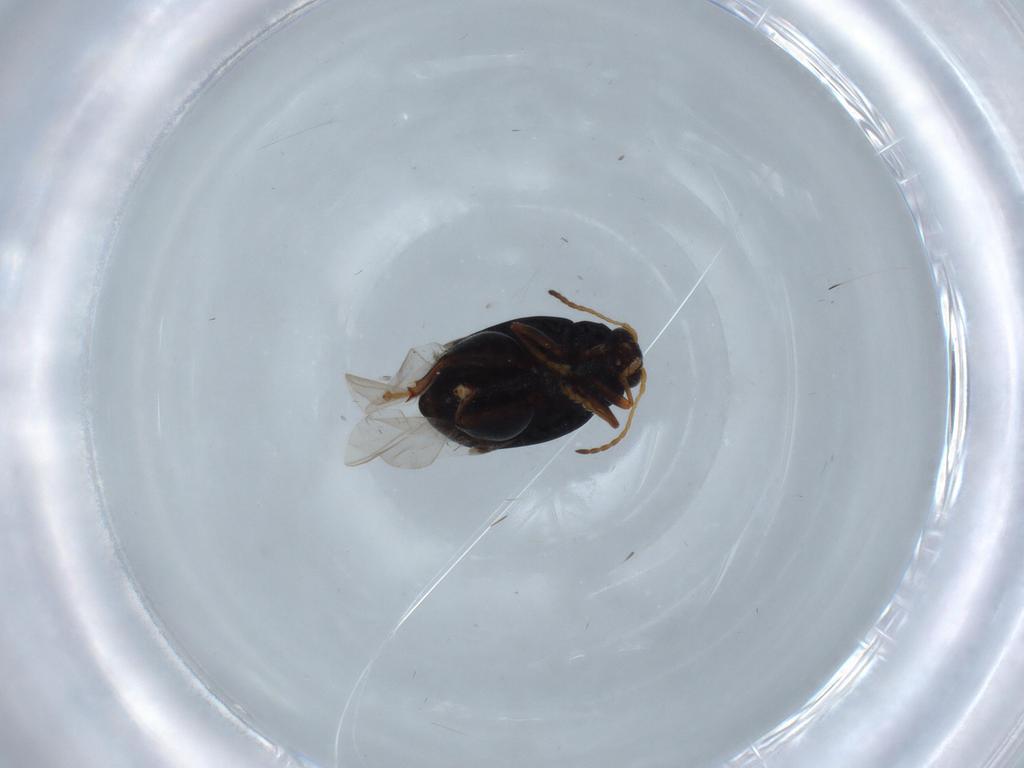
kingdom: Animalia
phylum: Arthropoda
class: Insecta
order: Coleoptera
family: Chrysomelidae
